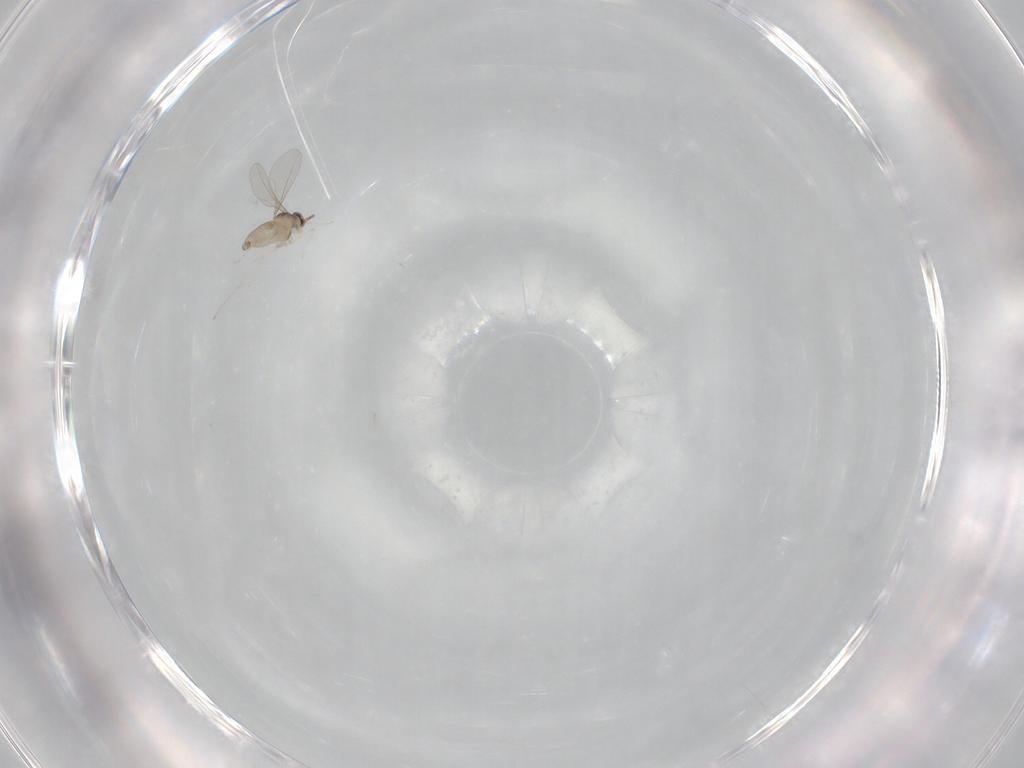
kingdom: Animalia
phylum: Arthropoda
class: Insecta
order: Diptera
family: Cecidomyiidae
